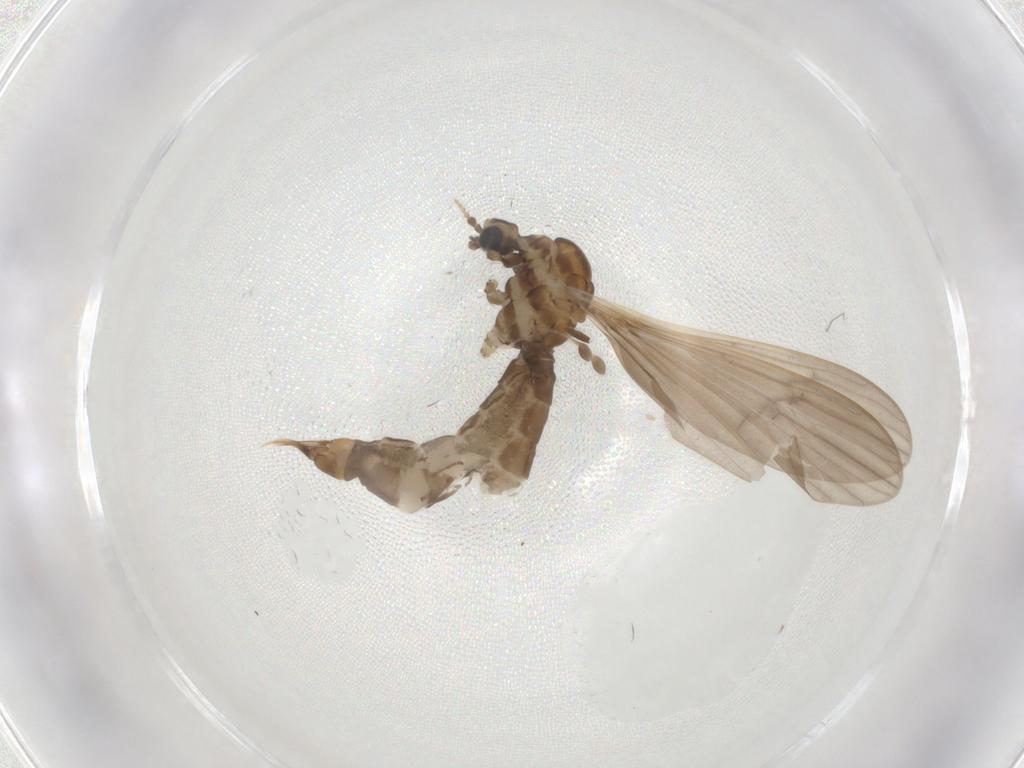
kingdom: Animalia
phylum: Arthropoda
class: Insecta
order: Diptera
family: Limoniidae
